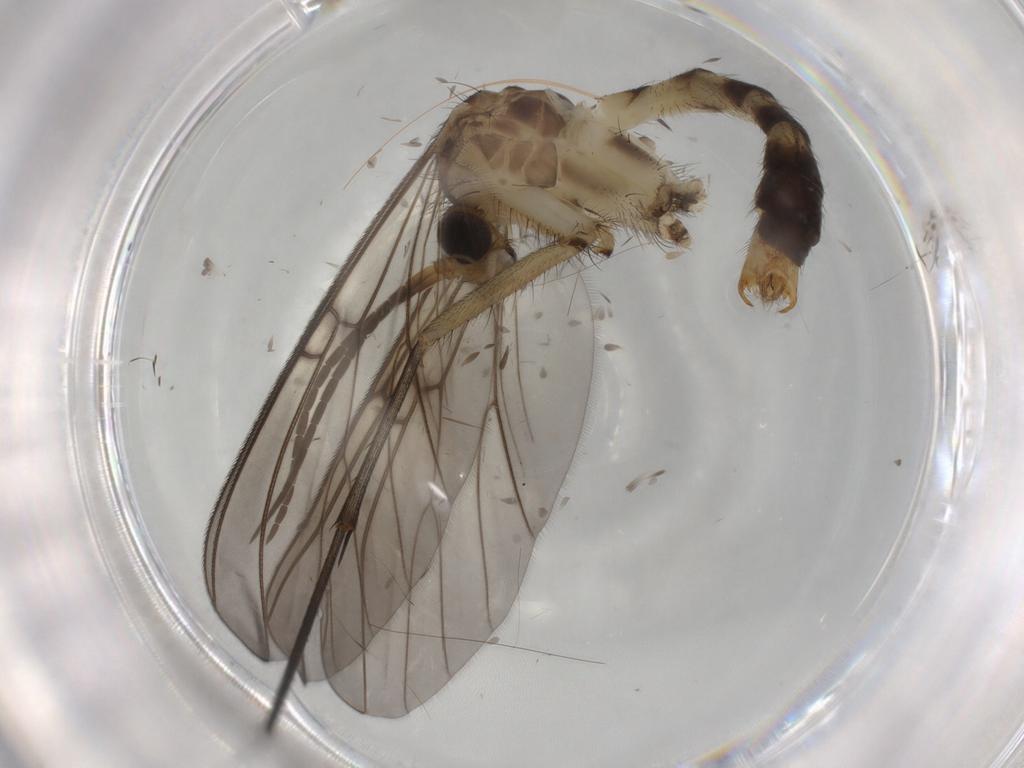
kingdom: Animalia
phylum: Arthropoda
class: Insecta
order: Diptera
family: Mycetophilidae
